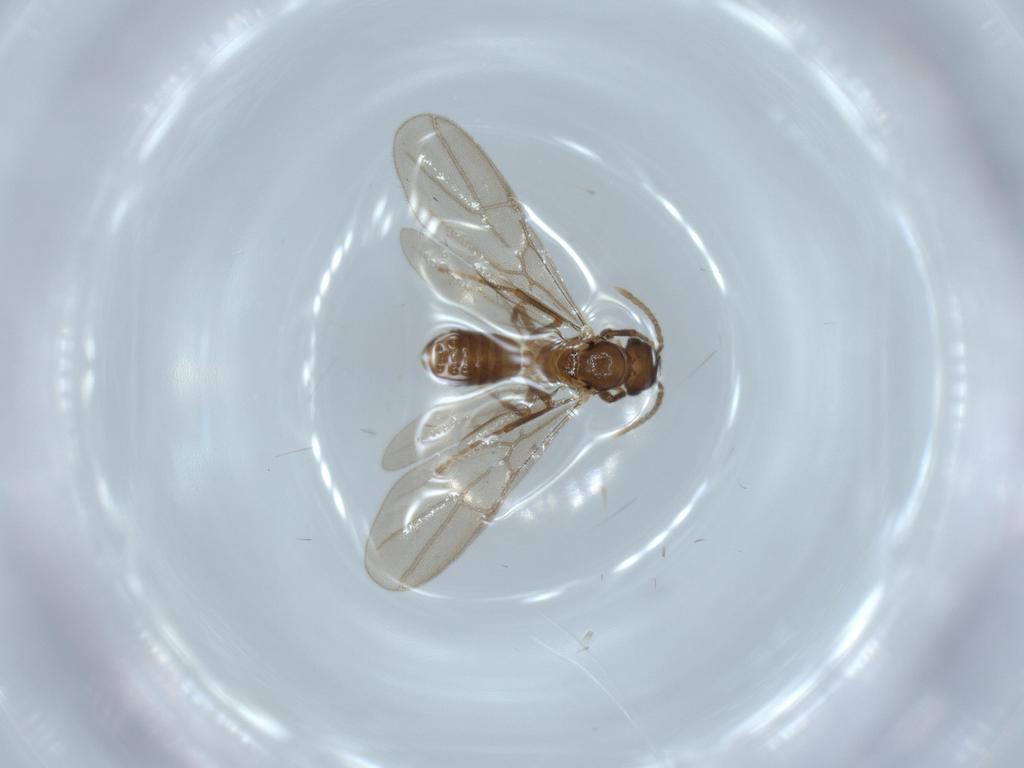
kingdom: Animalia
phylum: Arthropoda
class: Insecta
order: Hymenoptera
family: Formicidae
